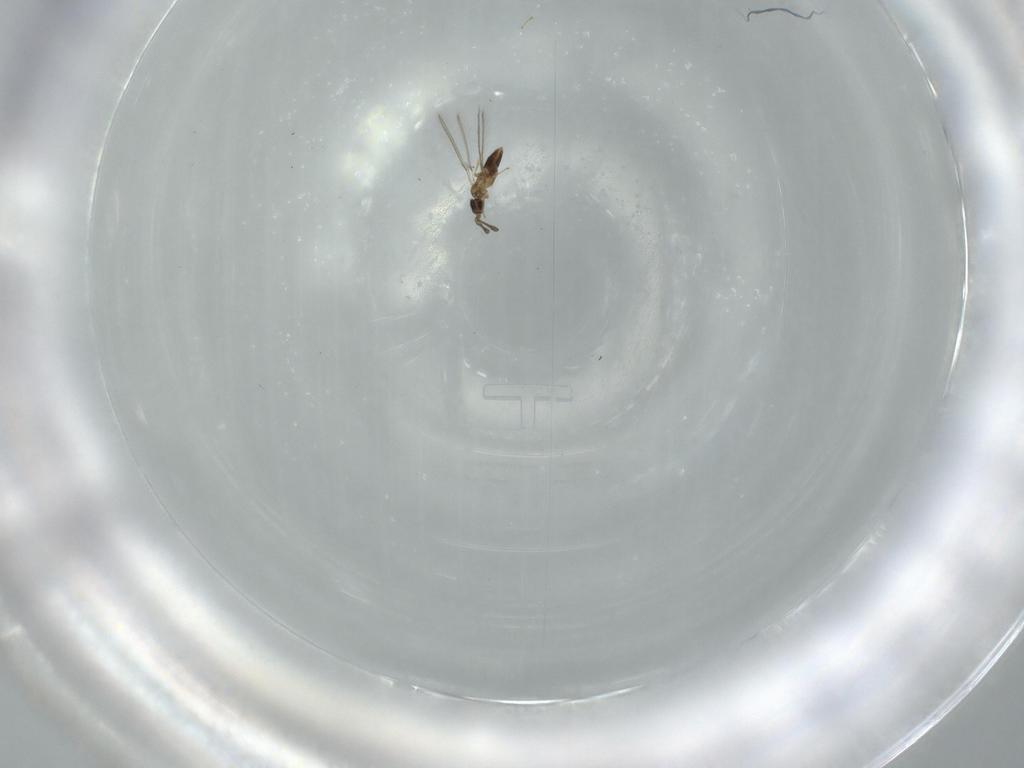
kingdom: Animalia
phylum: Arthropoda
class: Insecta
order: Hymenoptera
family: Mymaridae
